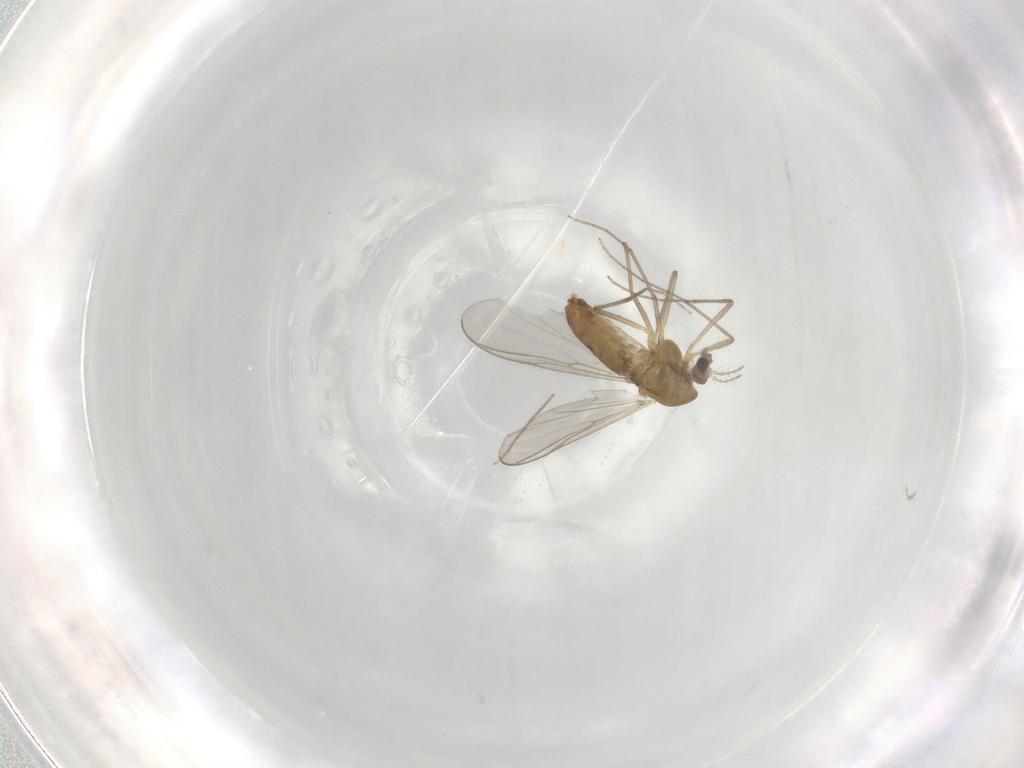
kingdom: Animalia
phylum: Arthropoda
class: Insecta
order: Diptera
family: Chironomidae
